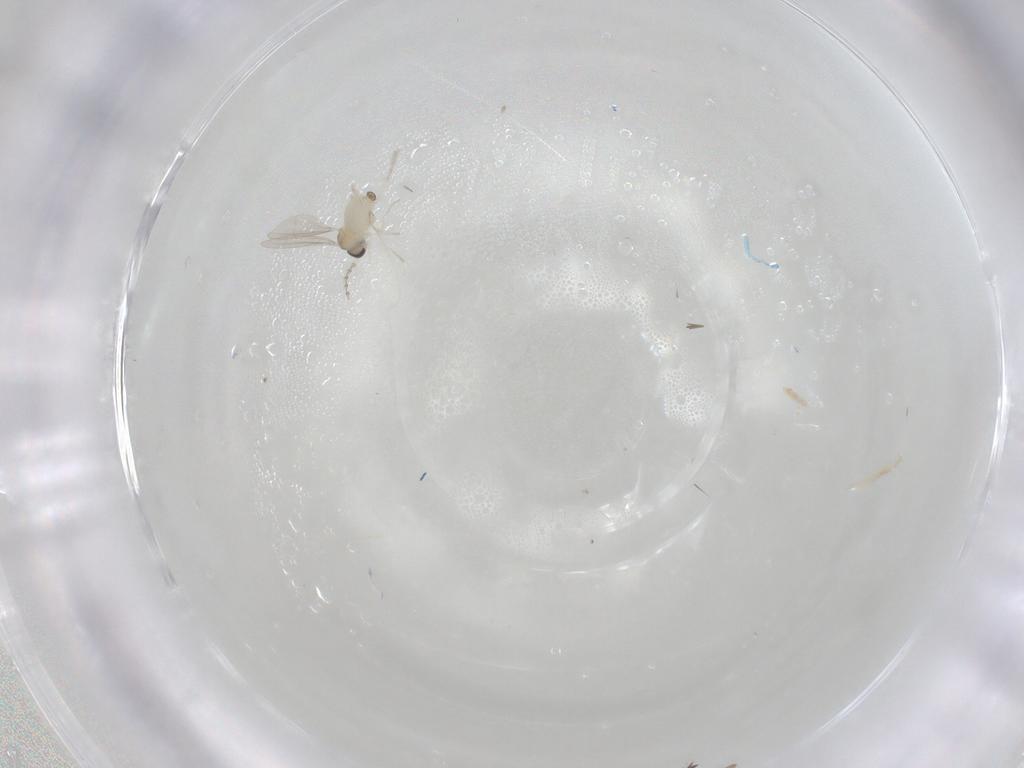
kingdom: Animalia
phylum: Arthropoda
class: Insecta
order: Diptera
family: Cecidomyiidae
